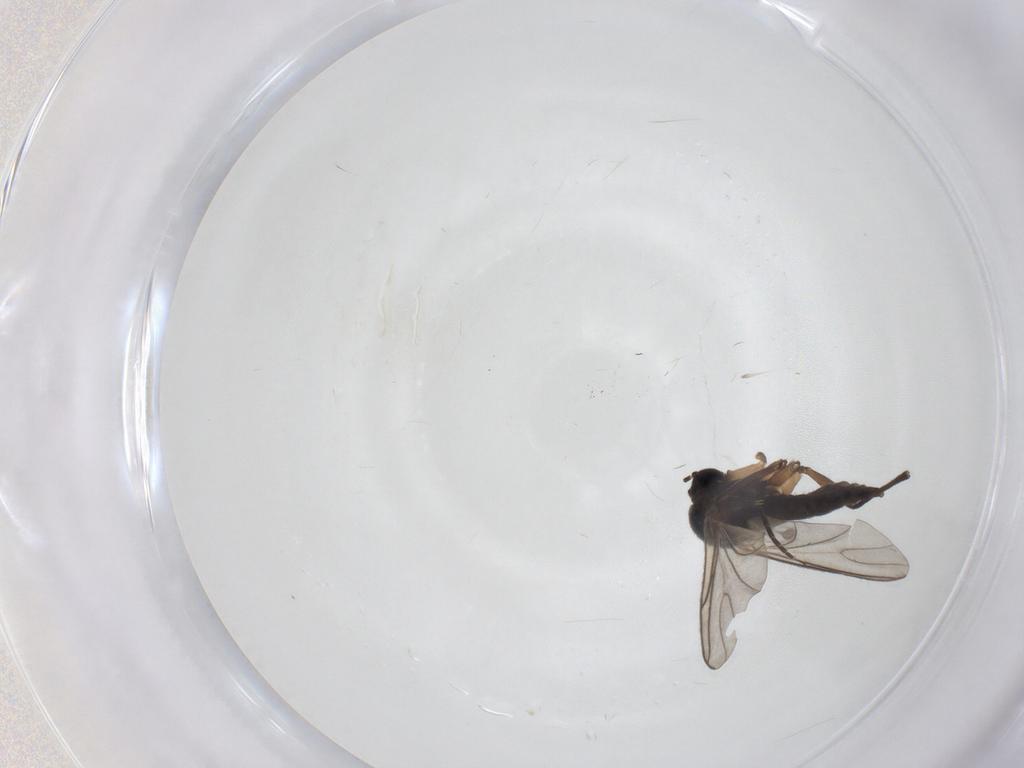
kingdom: Animalia
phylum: Arthropoda
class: Insecta
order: Diptera
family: Sciaridae
